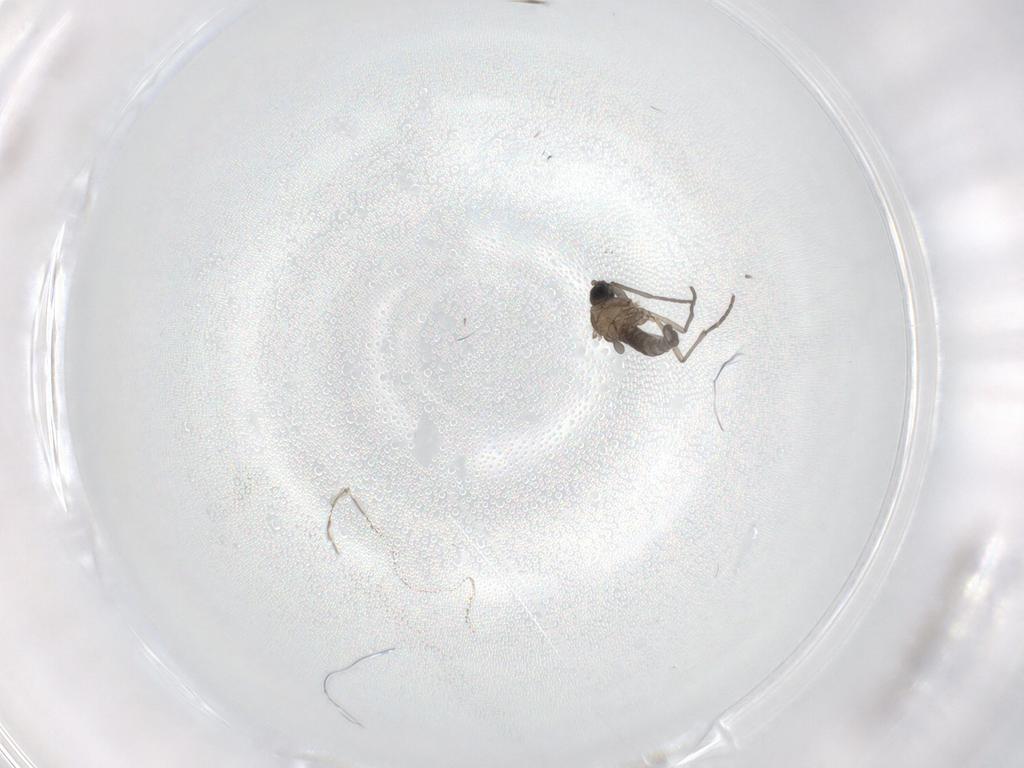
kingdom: Animalia
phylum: Arthropoda
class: Insecta
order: Diptera
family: Sciaridae
